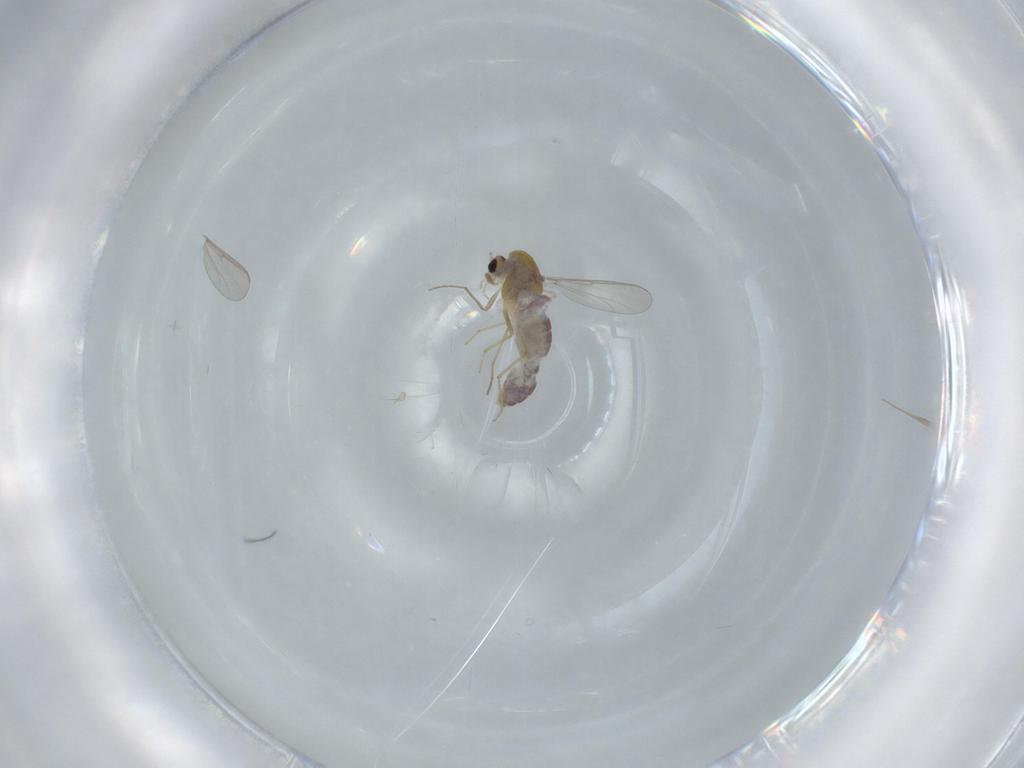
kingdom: Animalia
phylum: Arthropoda
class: Insecta
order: Diptera
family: Chironomidae
